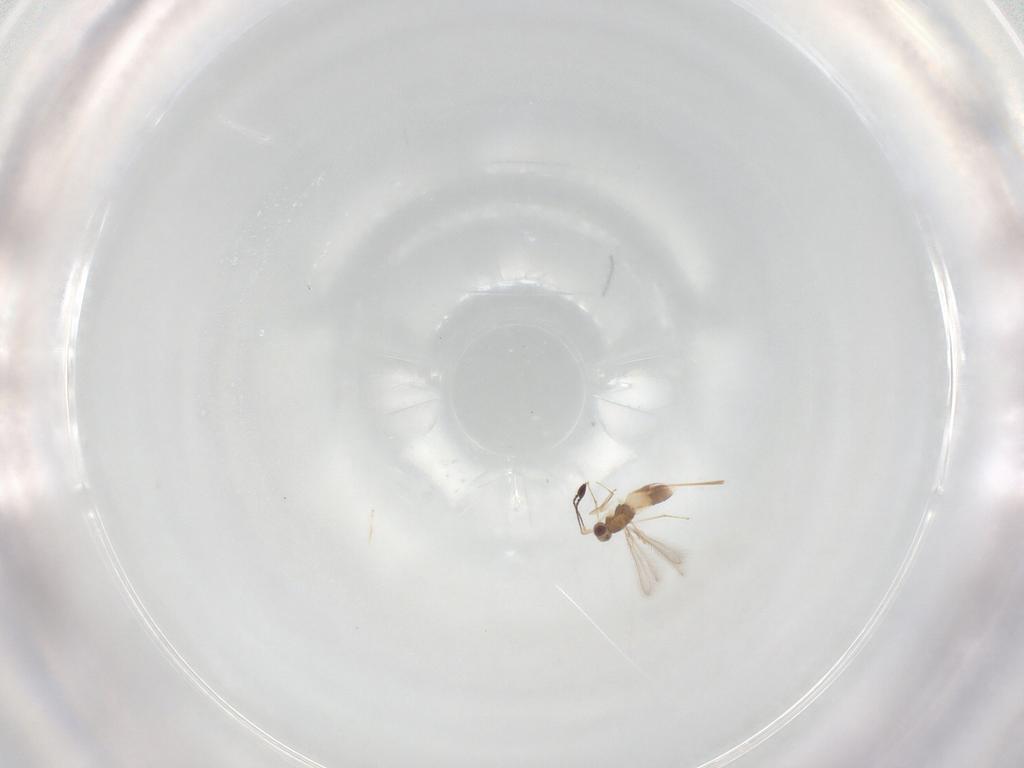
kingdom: Animalia
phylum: Arthropoda
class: Insecta
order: Hymenoptera
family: Mymaridae
